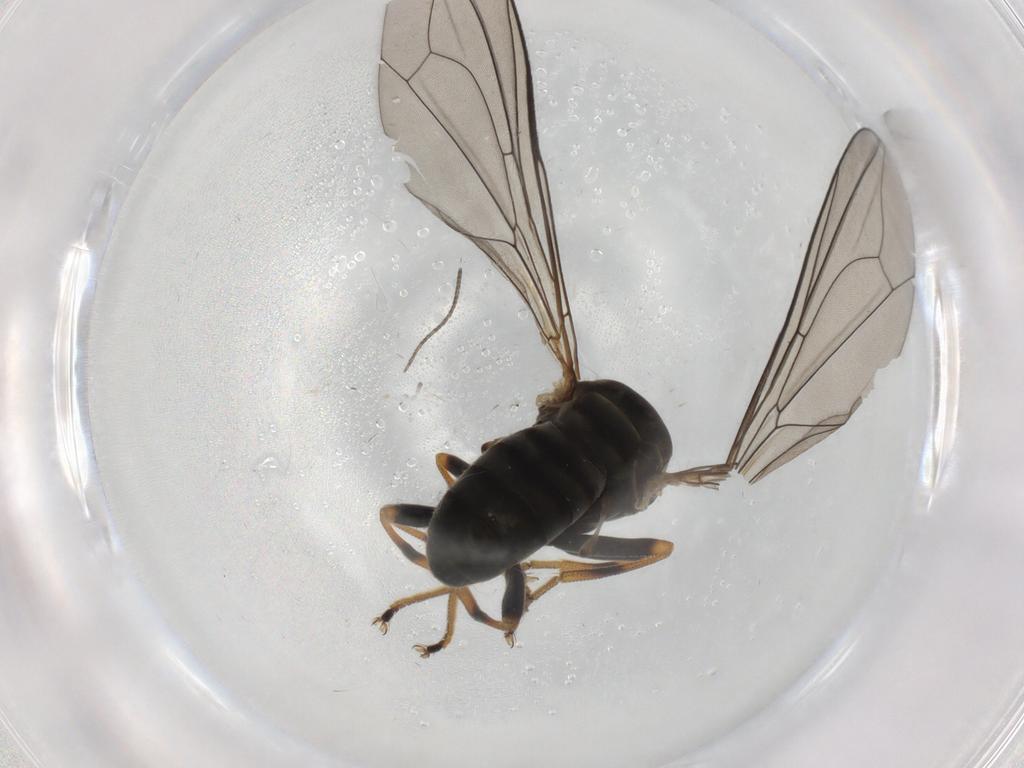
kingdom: Animalia
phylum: Arthropoda
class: Insecta
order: Diptera
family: Pipunculidae
